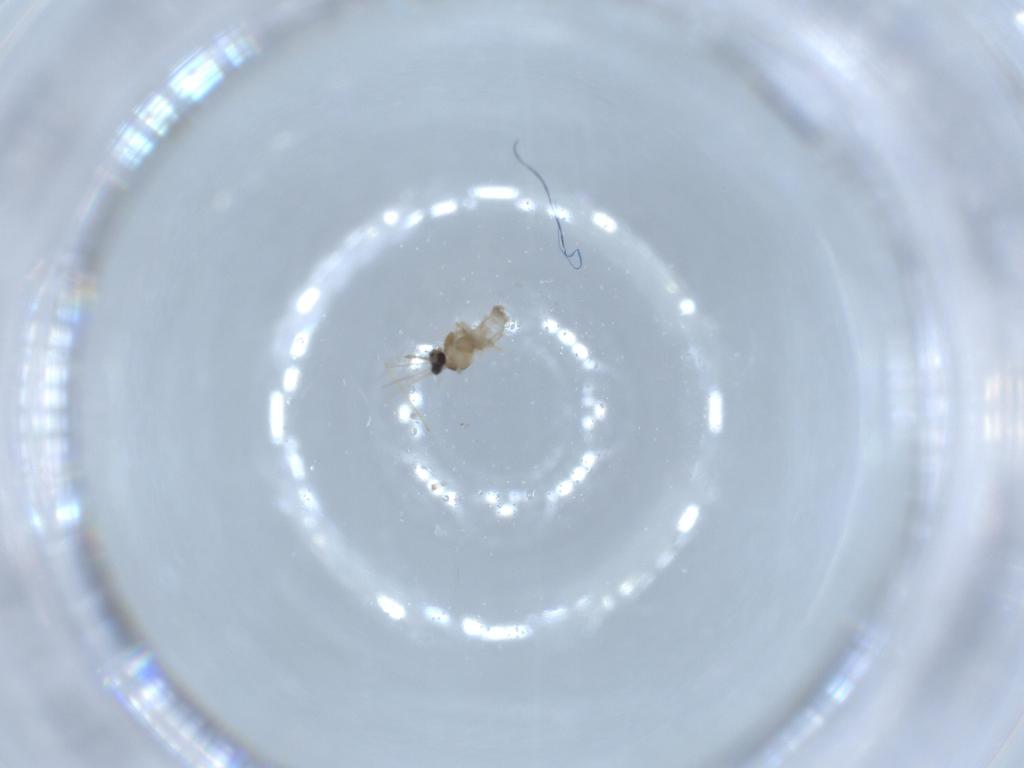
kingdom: Animalia
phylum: Arthropoda
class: Insecta
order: Diptera
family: Cecidomyiidae
